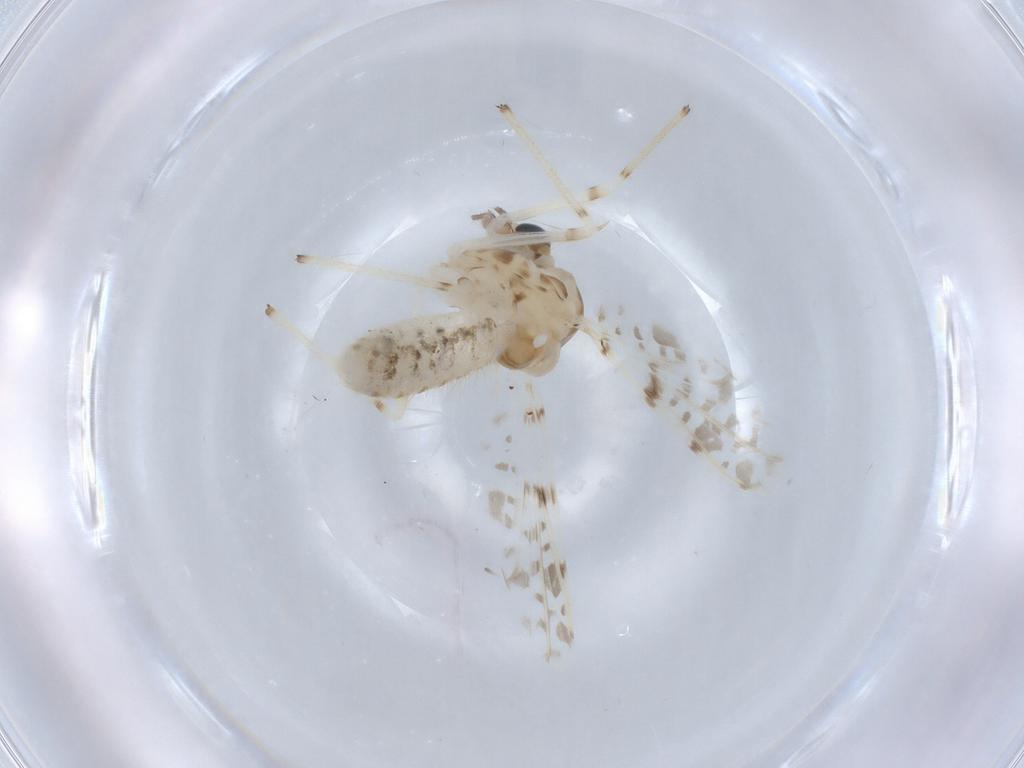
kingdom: Animalia
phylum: Arthropoda
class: Insecta
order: Diptera
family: Chironomidae
